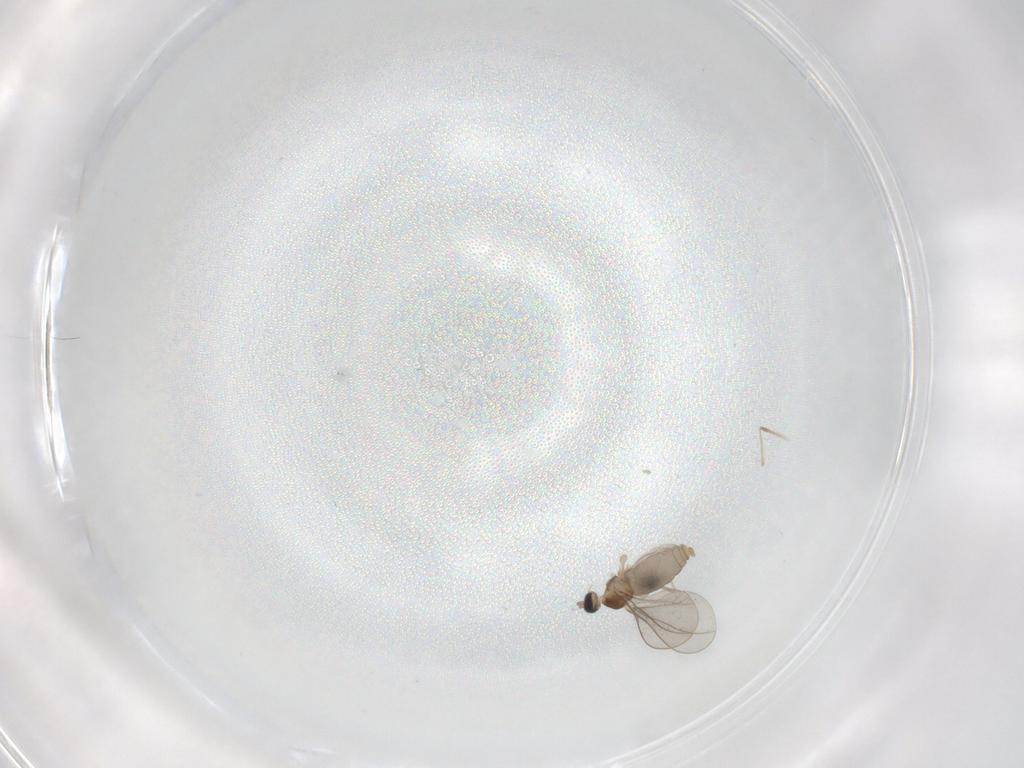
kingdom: Animalia
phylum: Arthropoda
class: Insecta
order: Diptera
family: Cecidomyiidae
